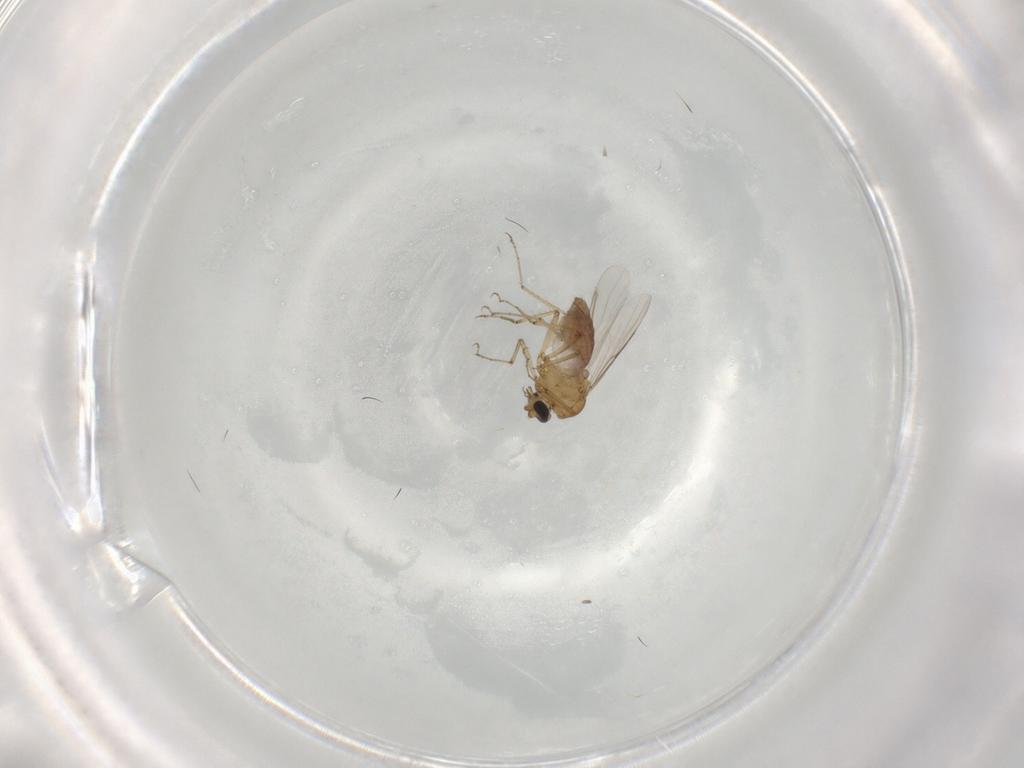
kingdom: Animalia
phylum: Arthropoda
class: Insecta
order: Diptera
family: Ceratopogonidae
